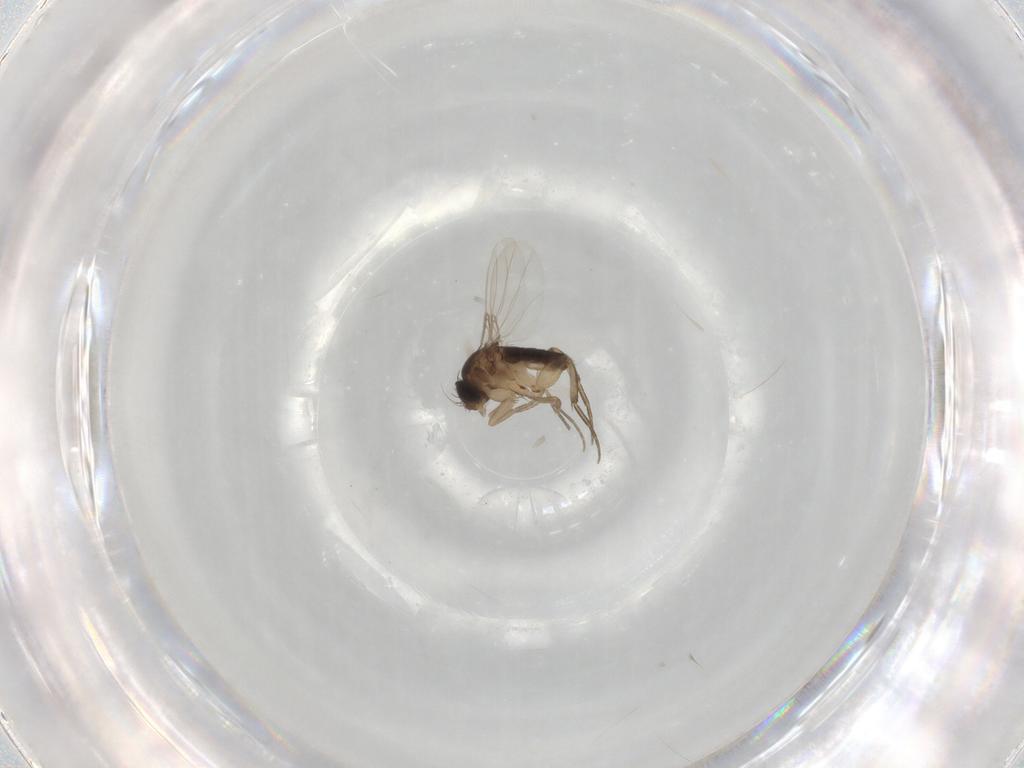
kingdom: Animalia
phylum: Arthropoda
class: Insecta
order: Diptera
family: Phoridae
